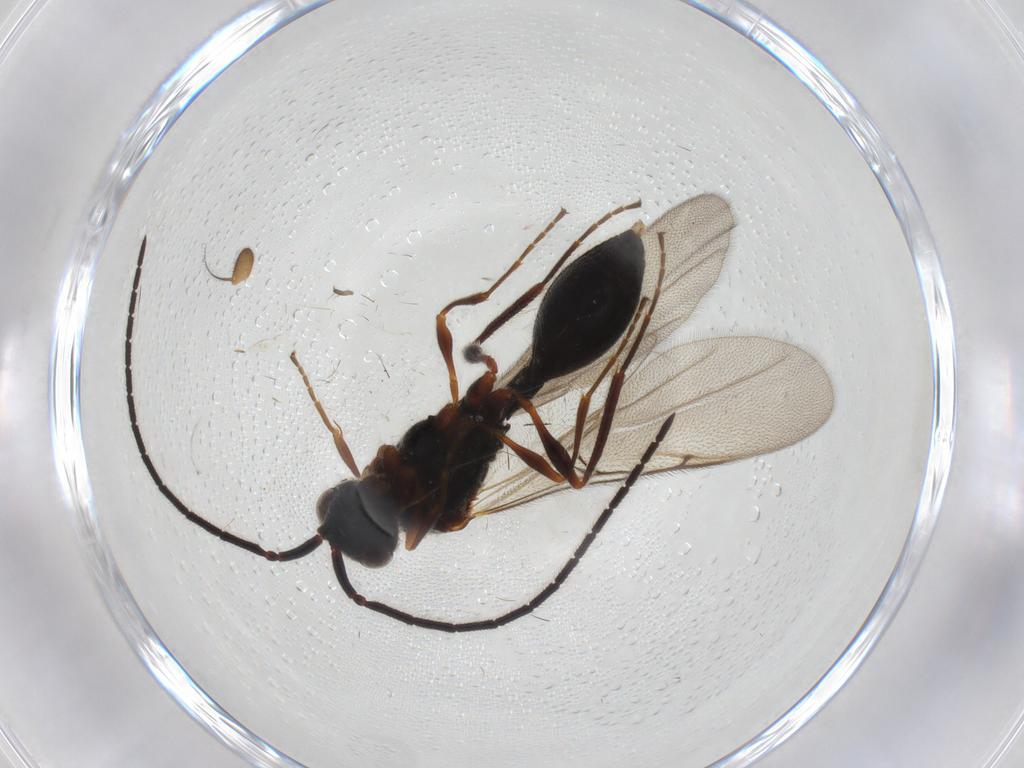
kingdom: Animalia
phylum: Arthropoda
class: Insecta
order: Hymenoptera
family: Diapriidae
